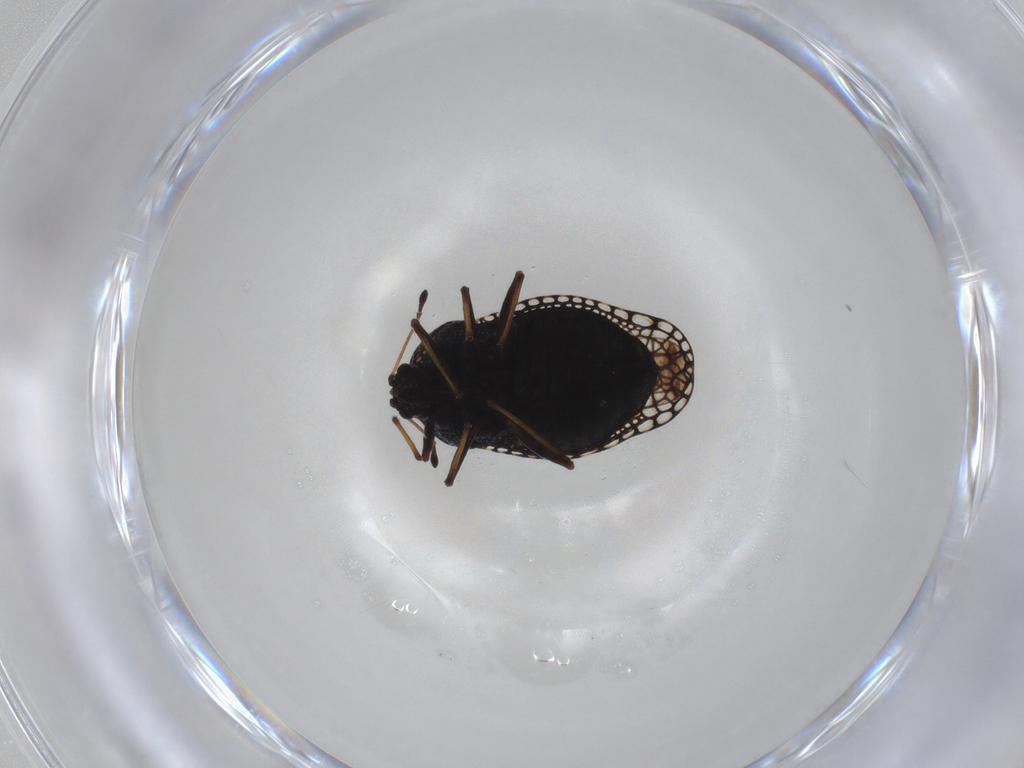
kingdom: Animalia
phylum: Arthropoda
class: Insecta
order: Hemiptera
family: Tingidae
